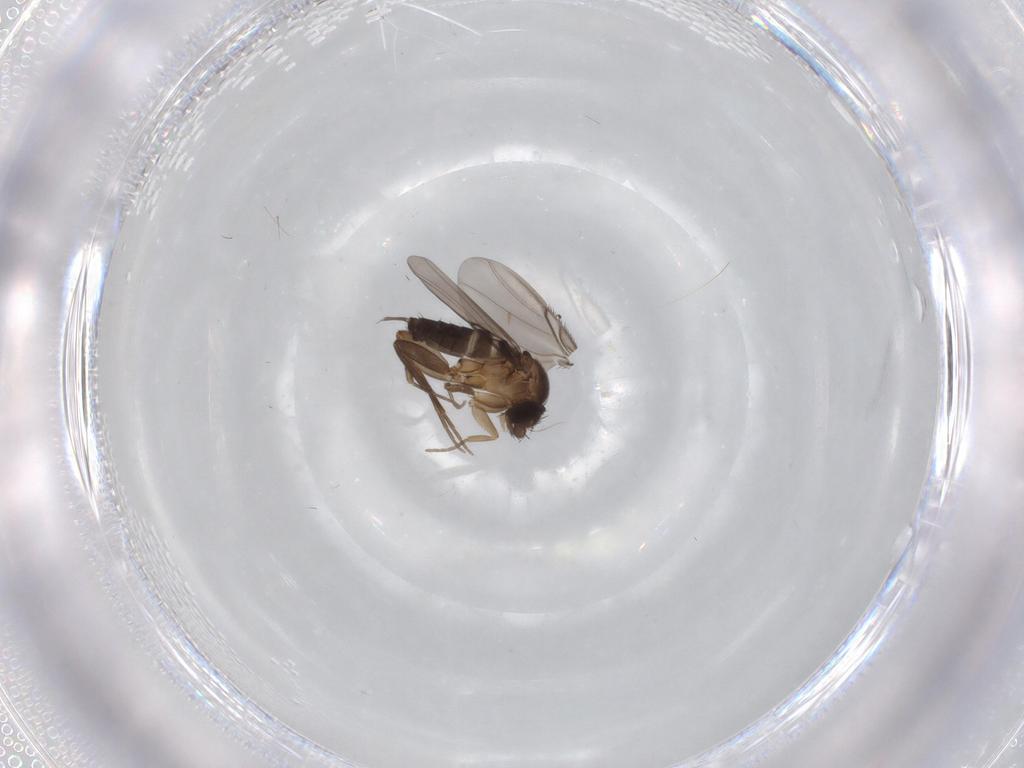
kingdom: Animalia
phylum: Arthropoda
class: Insecta
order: Diptera
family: Phoridae
